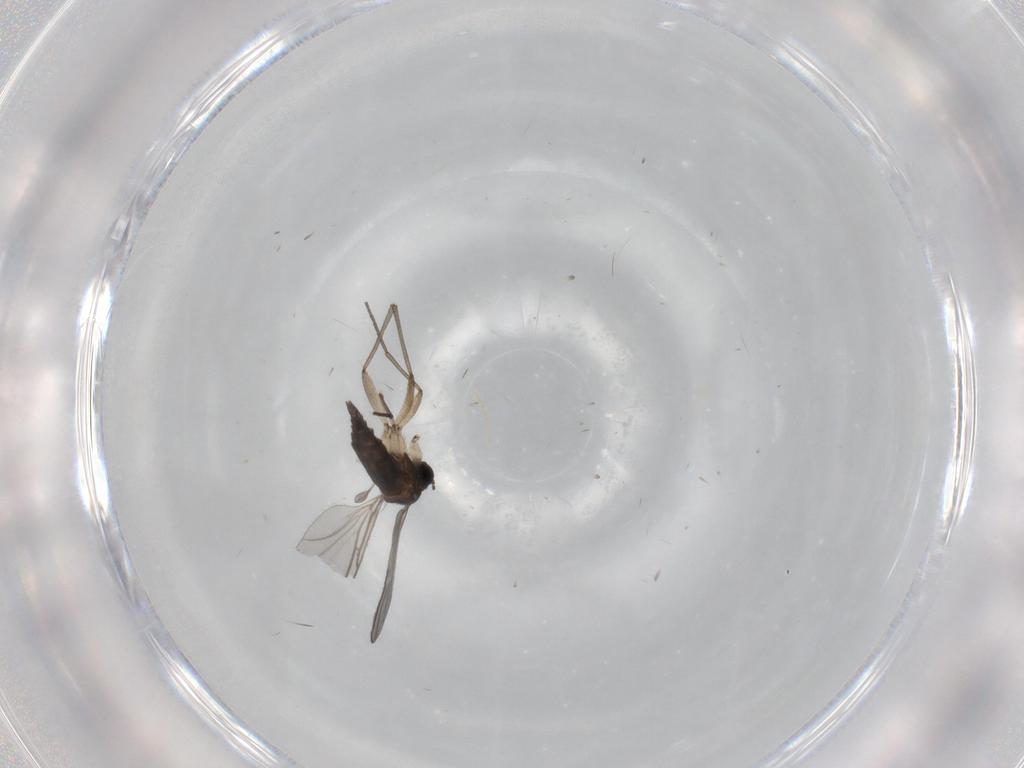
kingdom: Animalia
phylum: Arthropoda
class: Insecta
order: Diptera
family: Sciaridae
